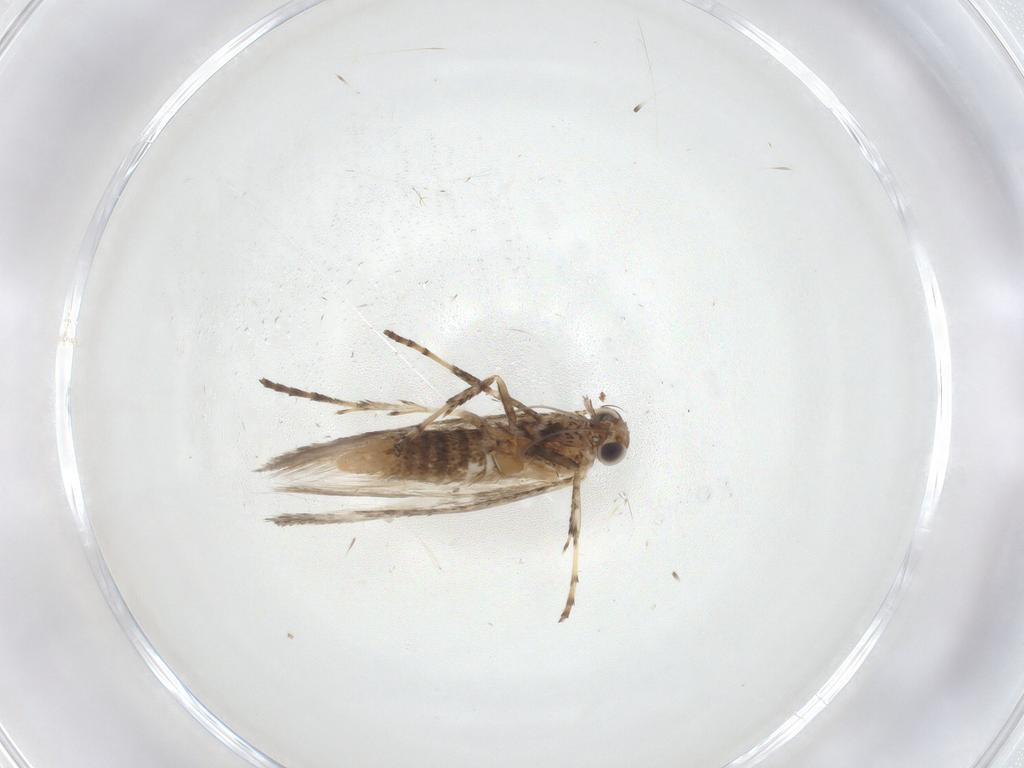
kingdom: Animalia
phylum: Arthropoda
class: Insecta
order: Lepidoptera
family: Gracillariidae
